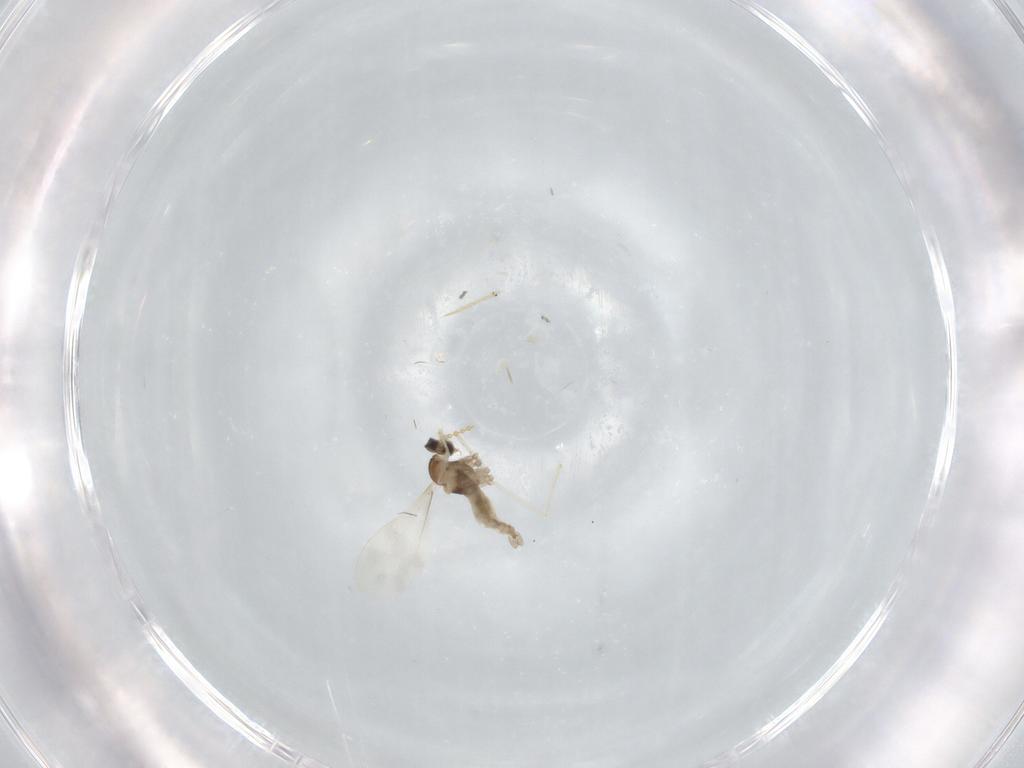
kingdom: Animalia
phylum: Arthropoda
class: Insecta
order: Diptera
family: Cecidomyiidae
